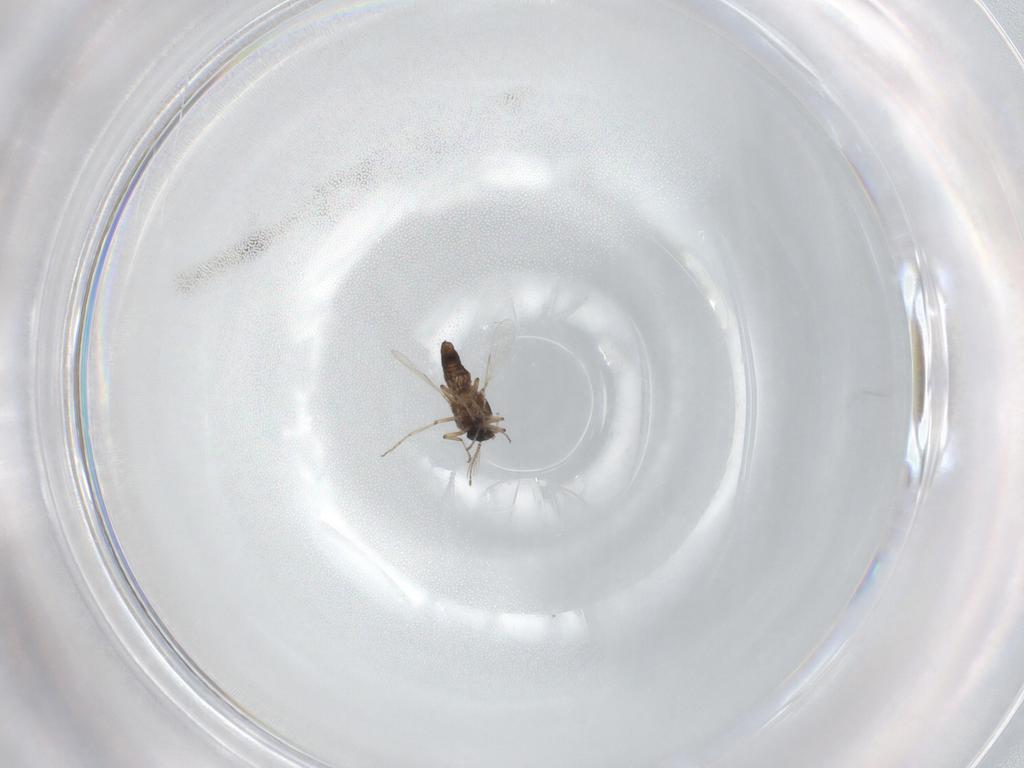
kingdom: Animalia
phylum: Arthropoda
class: Insecta
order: Diptera
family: Ceratopogonidae
